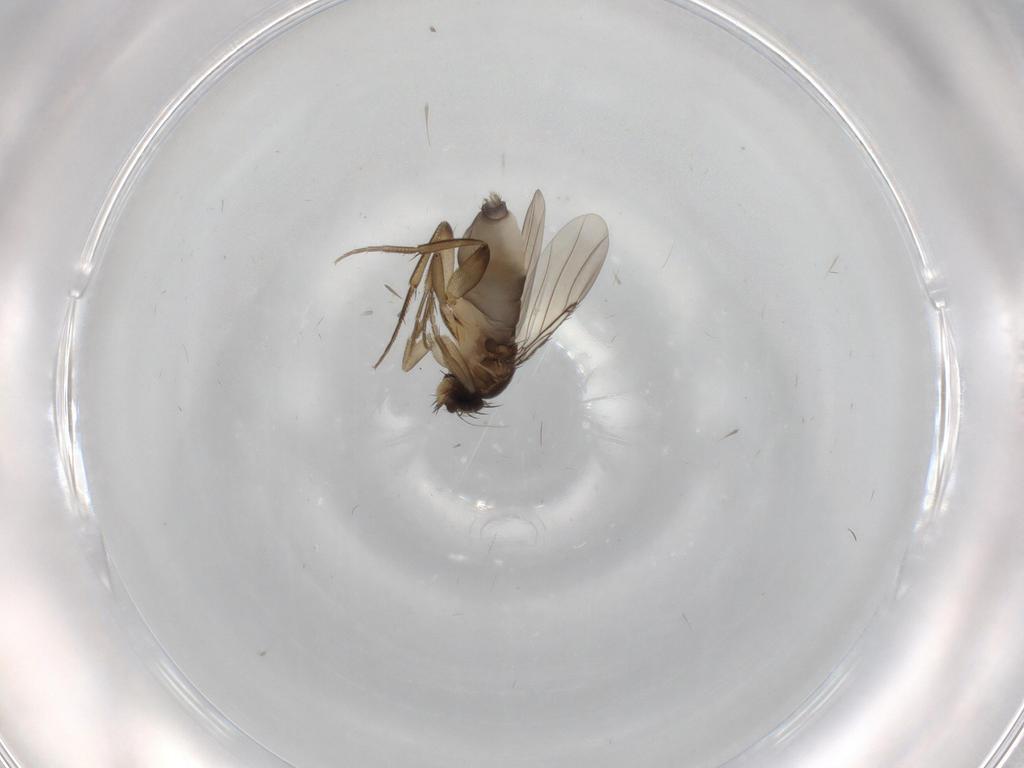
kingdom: Animalia
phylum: Arthropoda
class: Insecta
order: Diptera
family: Phoridae
